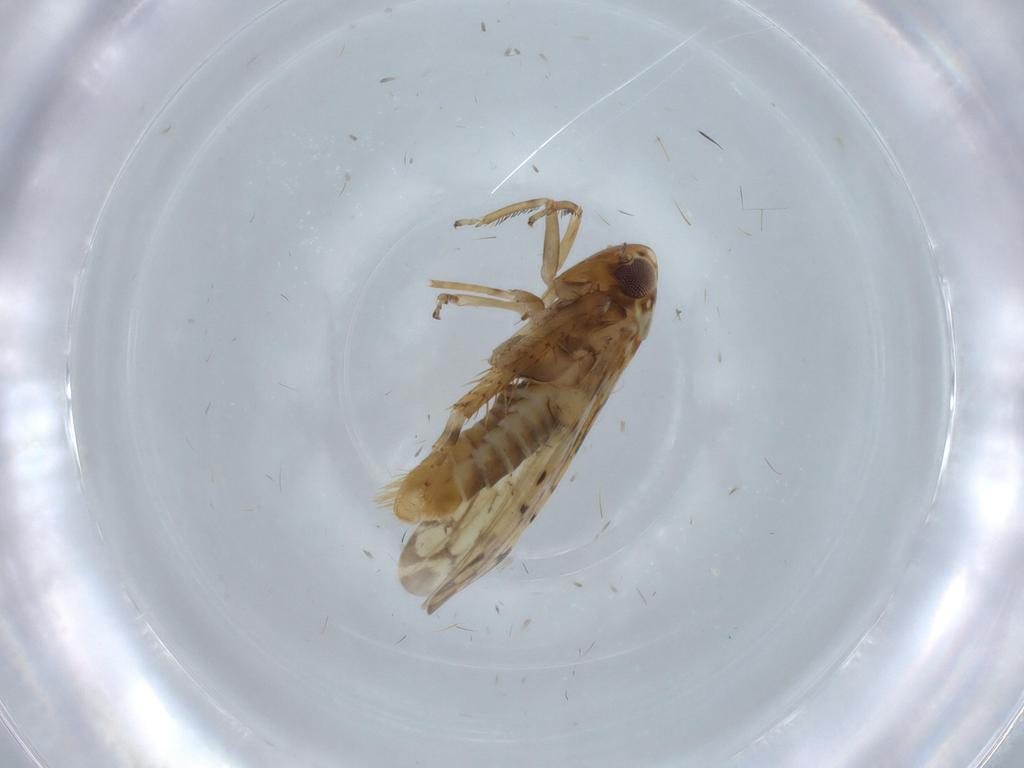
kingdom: Animalia
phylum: Arthropoda
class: Insecta
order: Hemiptera
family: Cicadellidae
